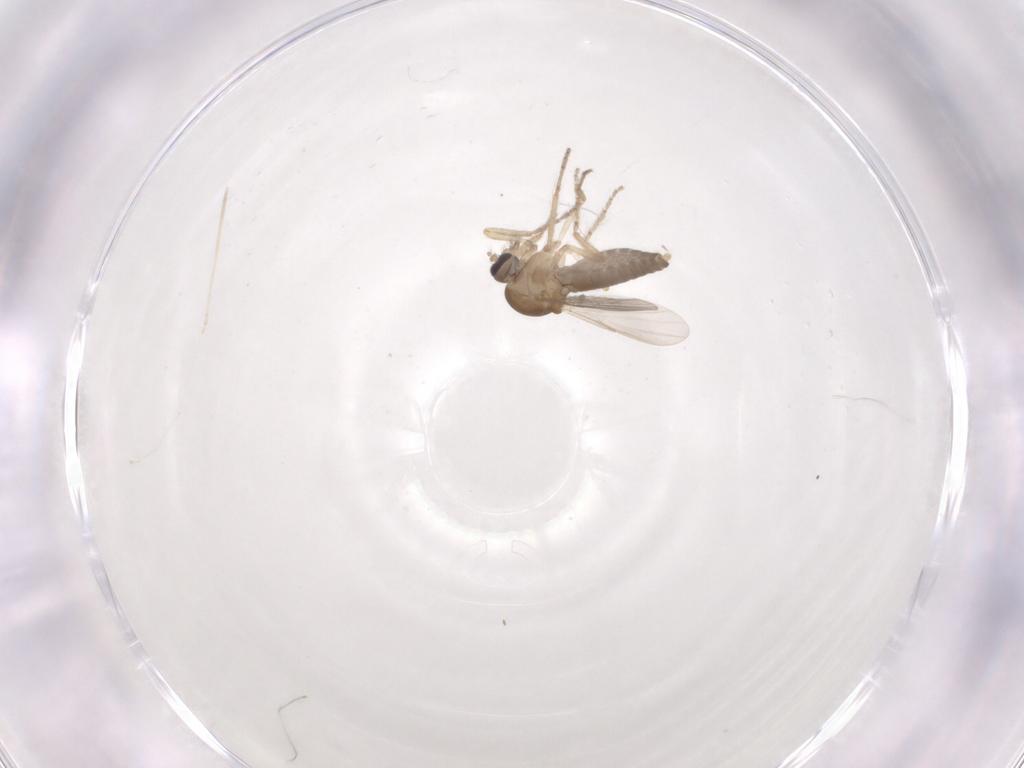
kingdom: Animalia
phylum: Arthropoda
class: Insecta
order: Diptera
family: Ceratopogonidae
